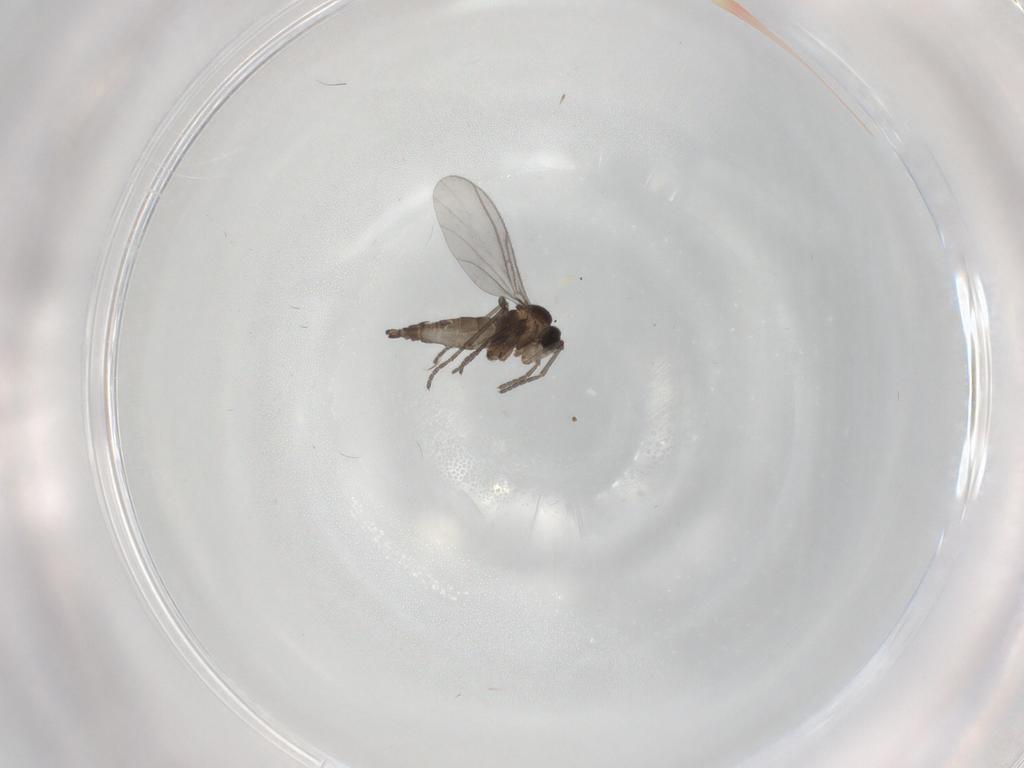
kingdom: Animalia
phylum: Arthropoda
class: Insecta
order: Diptera
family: Sciaridae
